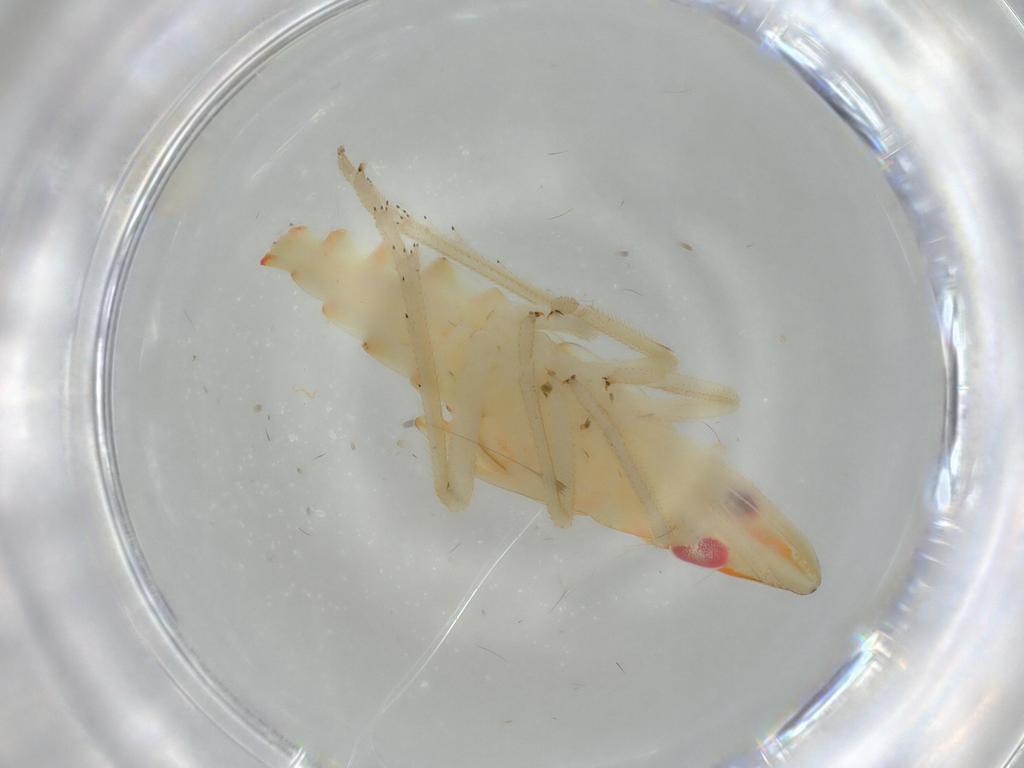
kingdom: Animalia
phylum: Arthropoda
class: Insecta
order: Hemiptera
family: Tropiduchidae
